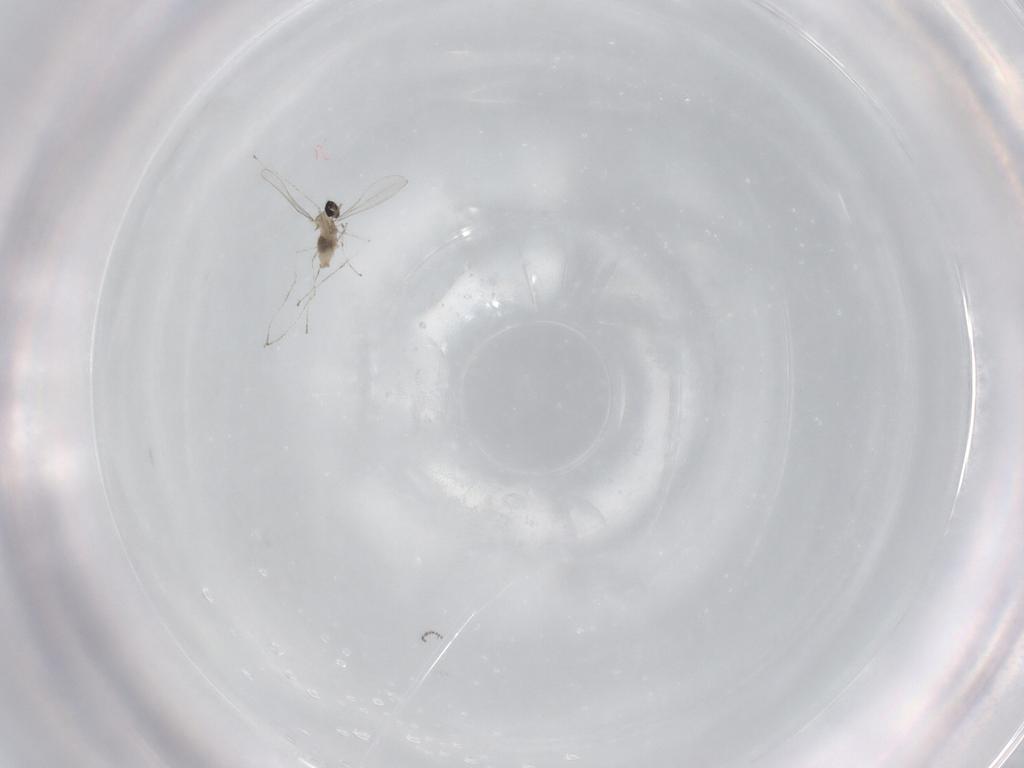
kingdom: Animalia
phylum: Arthropoda
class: Insecta
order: Diptera
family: Cecidomyiidae
